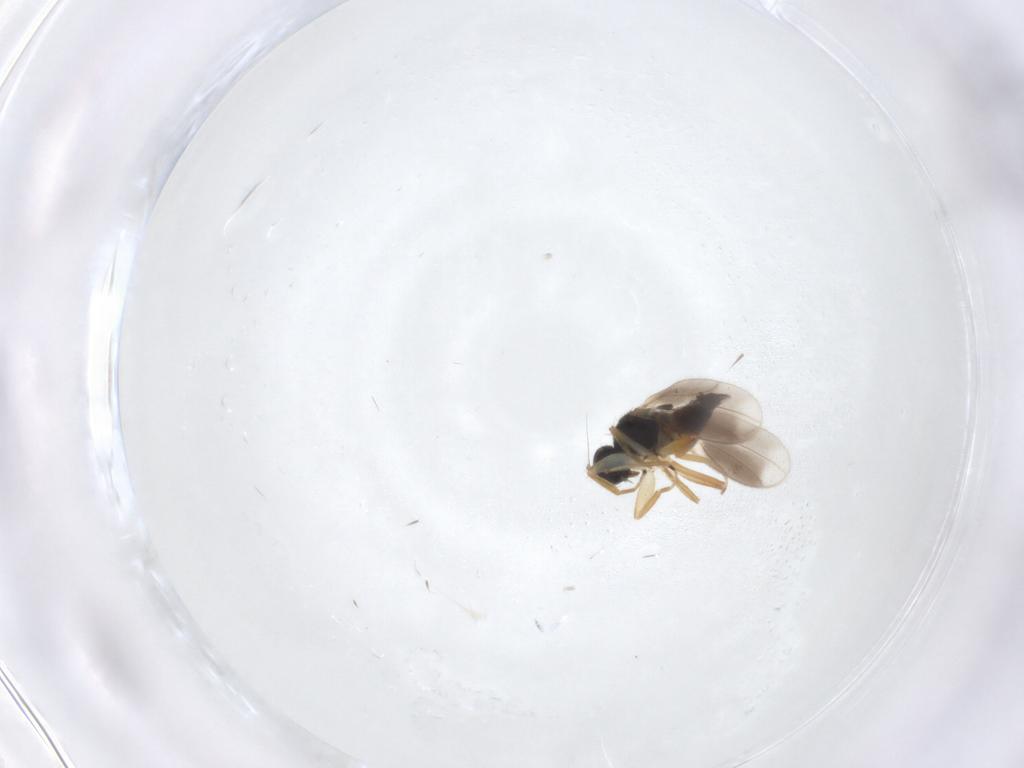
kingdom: Animalia
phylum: Arthropoda
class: Insecta
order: Diptera
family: Hybotidae
